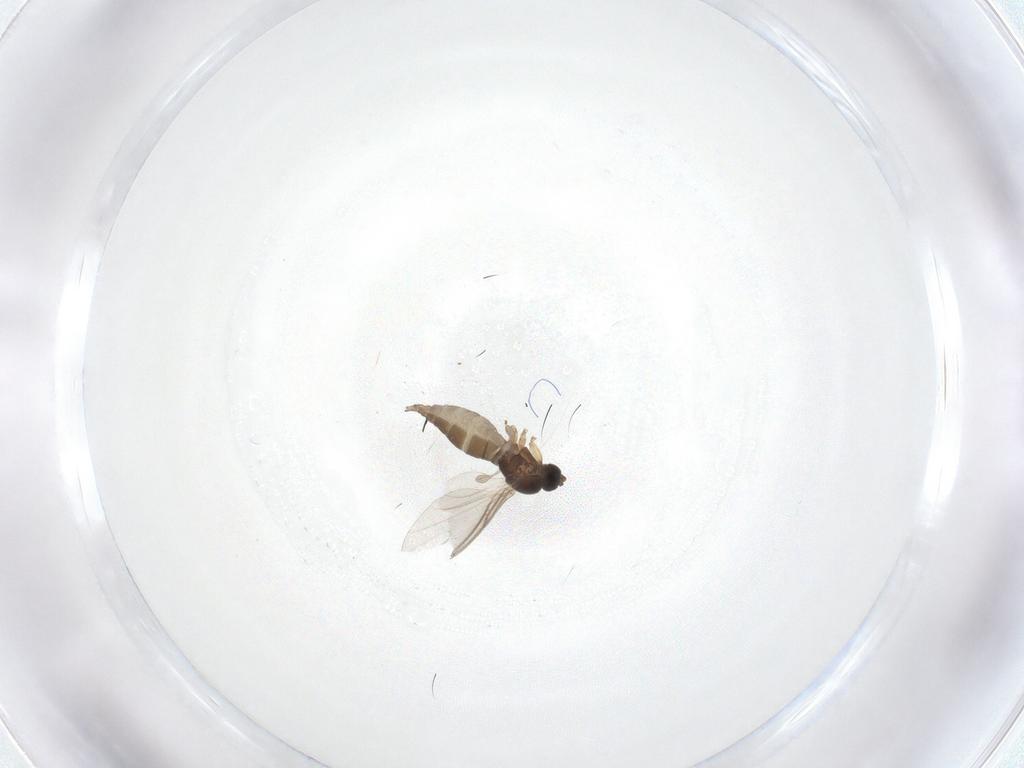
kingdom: Animalia
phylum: Arthropoda
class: Insecta
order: Diptera
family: Sciaridae
